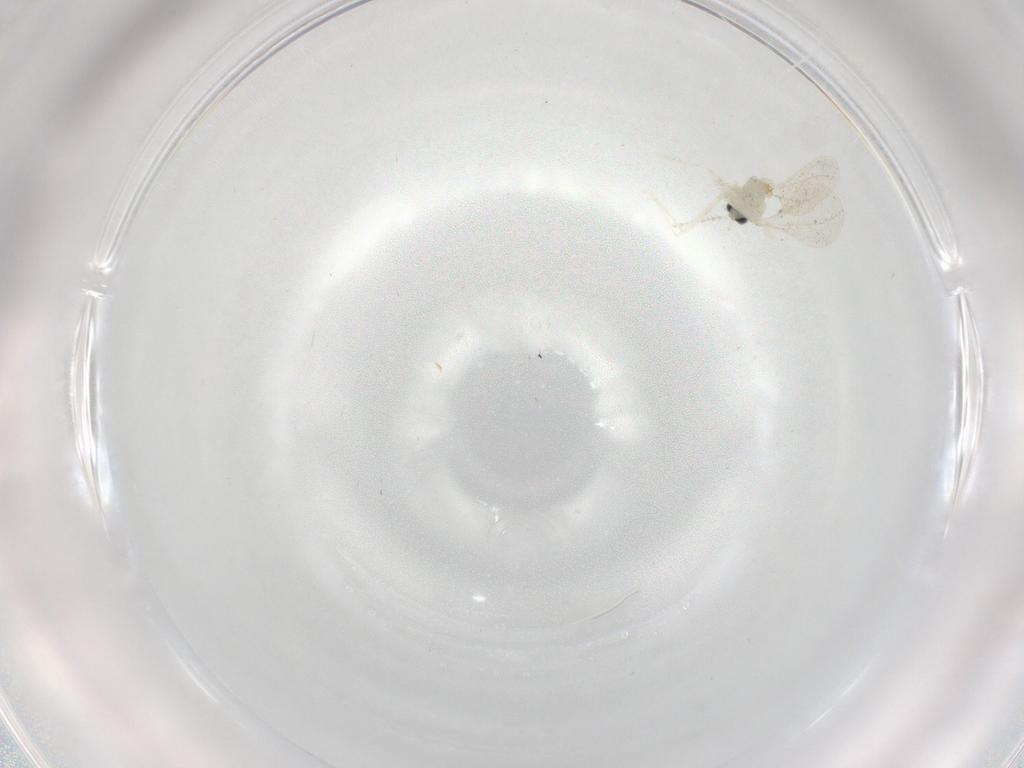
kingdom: Animalia
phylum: Arthropoda
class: Insecta
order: Diptera
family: Cecidomyiidae
